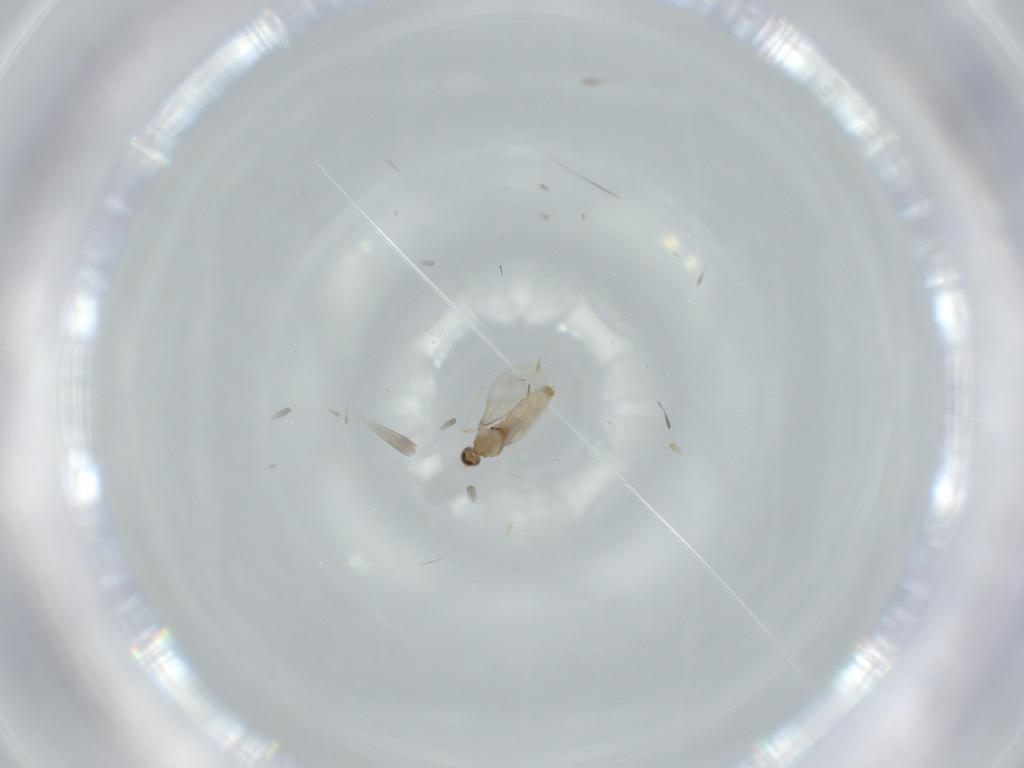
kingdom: Animalia
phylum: Arthropoda
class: Insecta
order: Diptera
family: Cecidomyiidae
